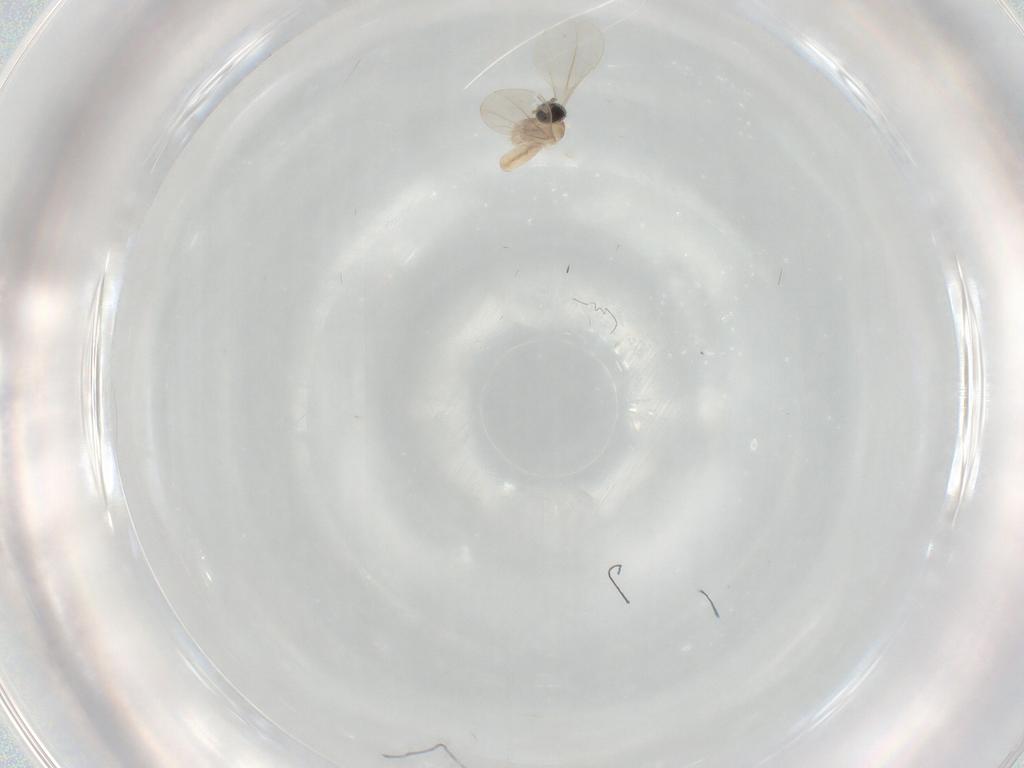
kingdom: Animalia
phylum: Arthropoda
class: Insecta
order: Diptera
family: Cecidomyiidae
